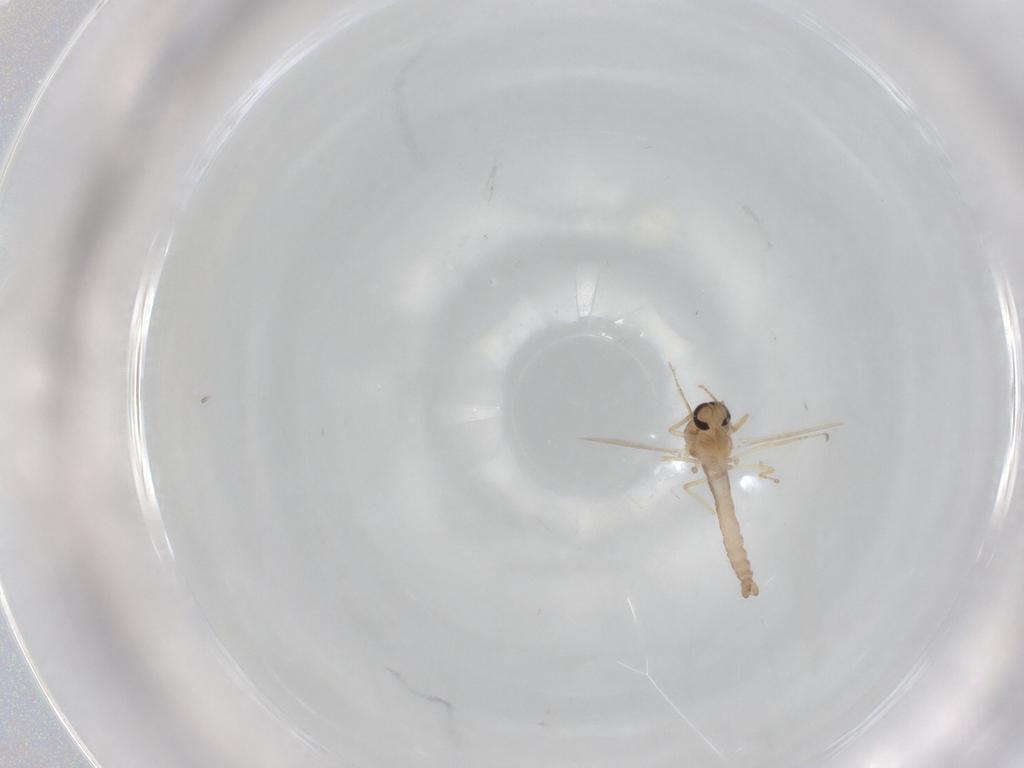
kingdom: Animalia
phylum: Arthropoda
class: Insecta
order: Diptera
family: Ceratopogonidae
